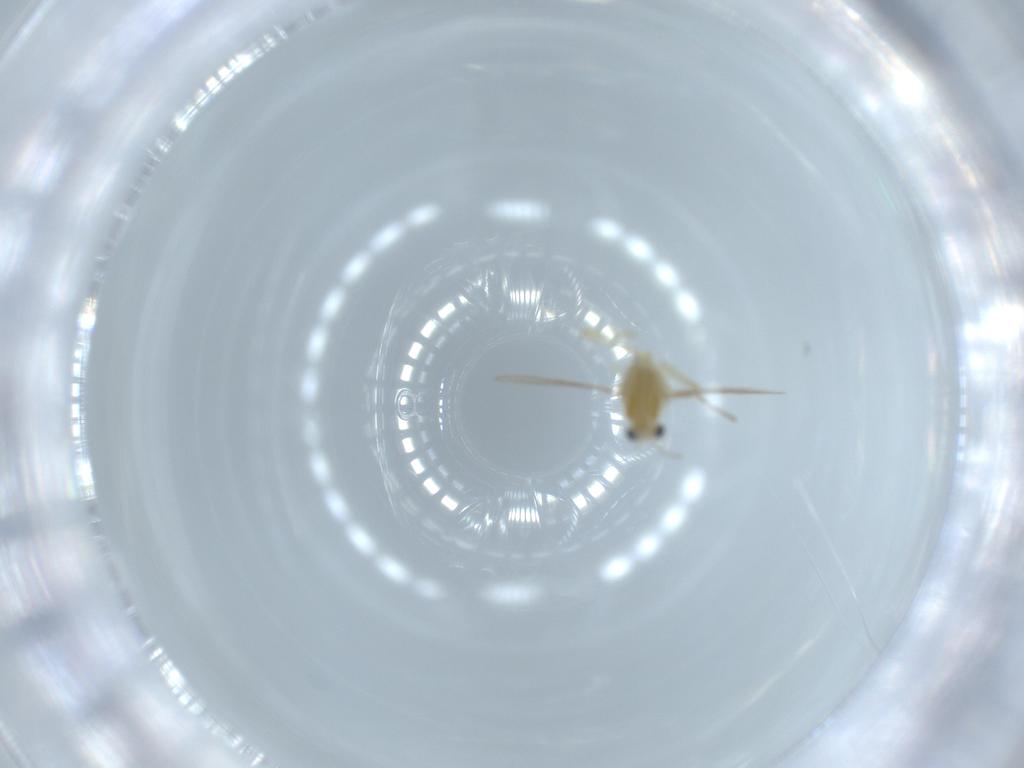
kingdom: Animalia
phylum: Arthropoda
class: Insecta
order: Diptera
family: Chironomidae
